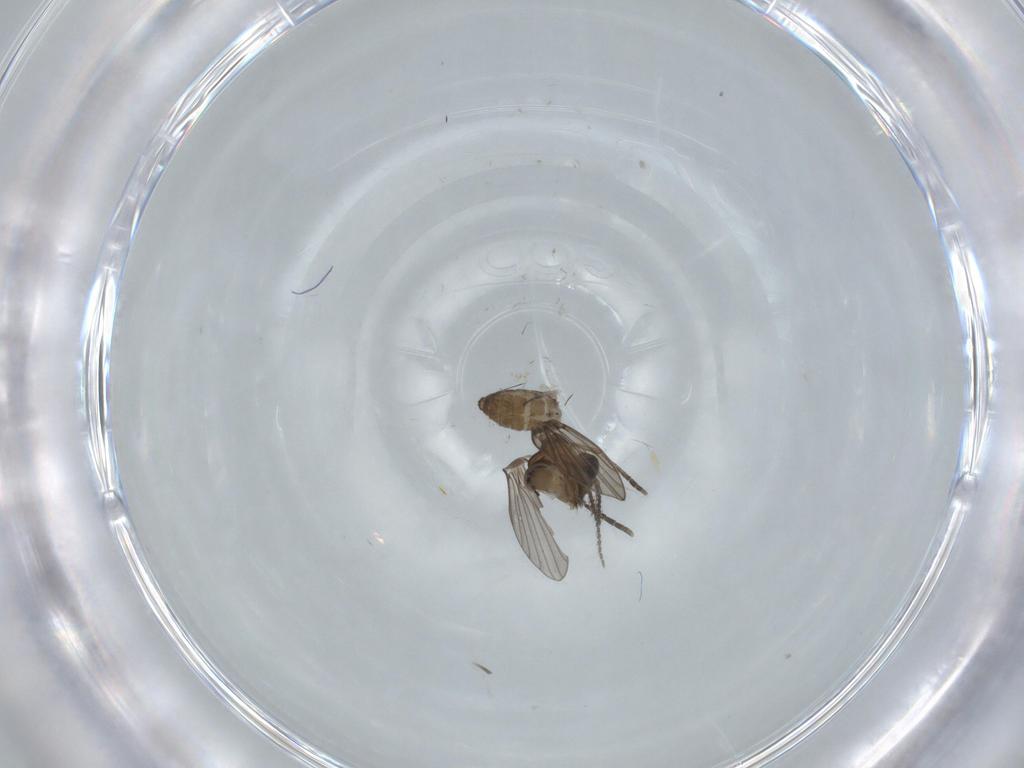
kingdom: Animalia
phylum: Arthropoda
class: Insecta
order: Diptera
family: Psychodidae
